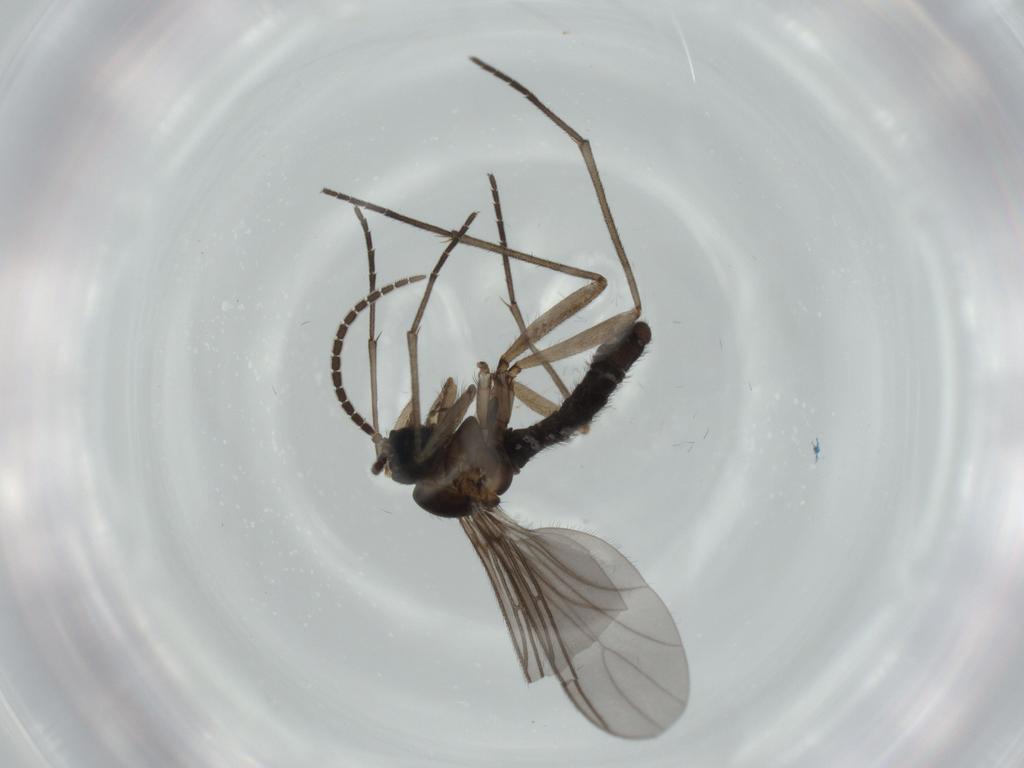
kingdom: Animalia
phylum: Arthropoda
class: Insecta
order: Diptera
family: Sciaridae
